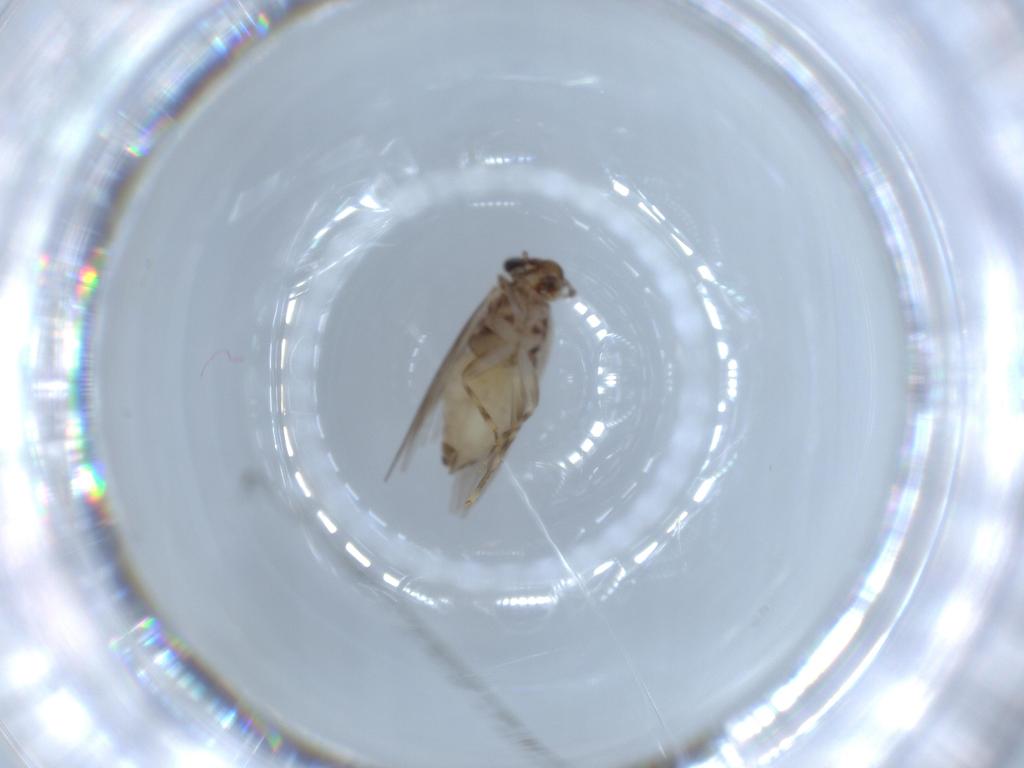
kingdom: Animalia
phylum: Arthropoda
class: Insecta
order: Psocodea
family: Lepidopsocidae
